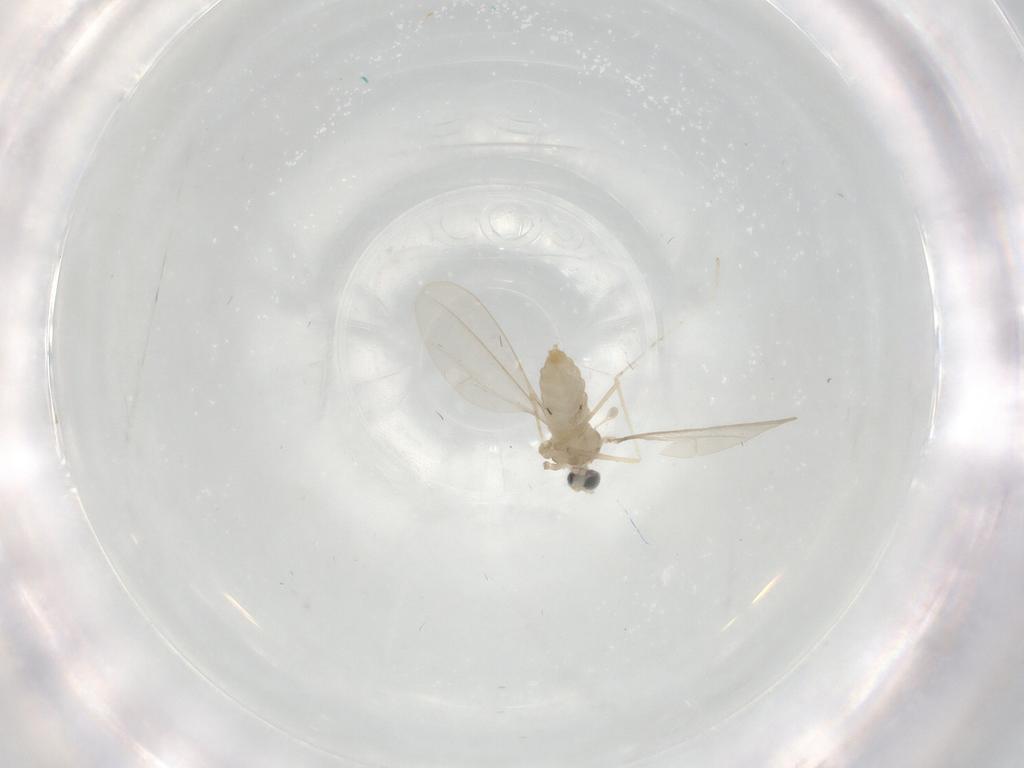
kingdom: Animalia
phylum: Arthropoda
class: Insecta
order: Diptera
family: Cecidomyiidae
